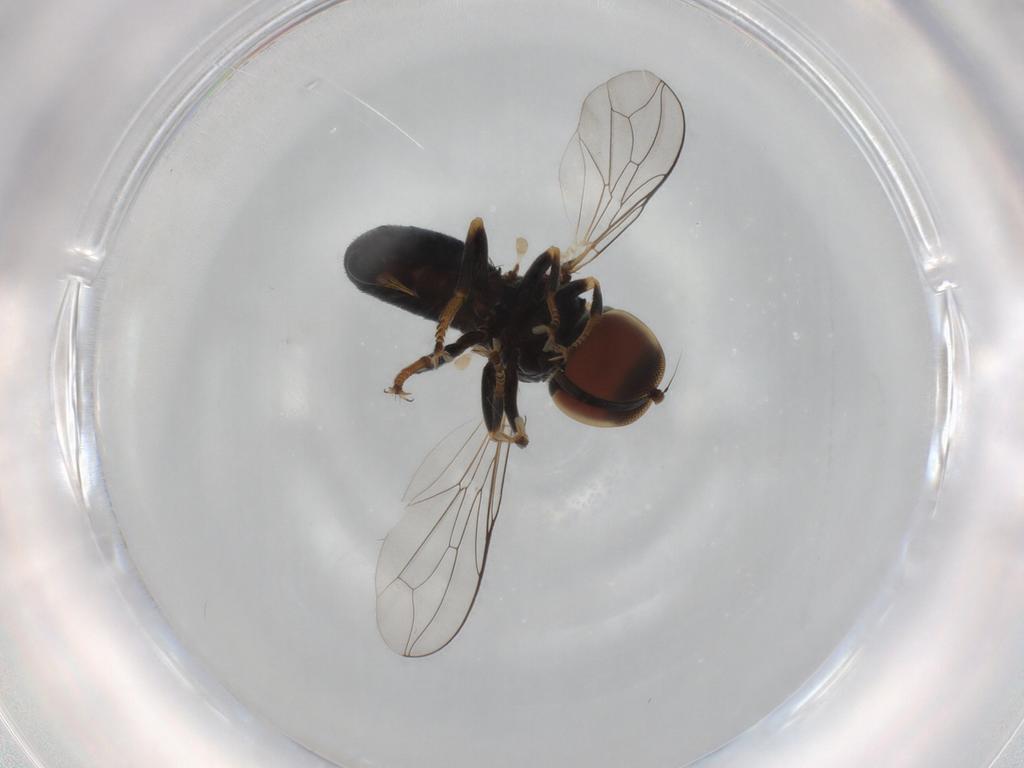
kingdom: Animalia
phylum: Arthropoda
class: Insecta
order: Diptera
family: Pipunculidae
